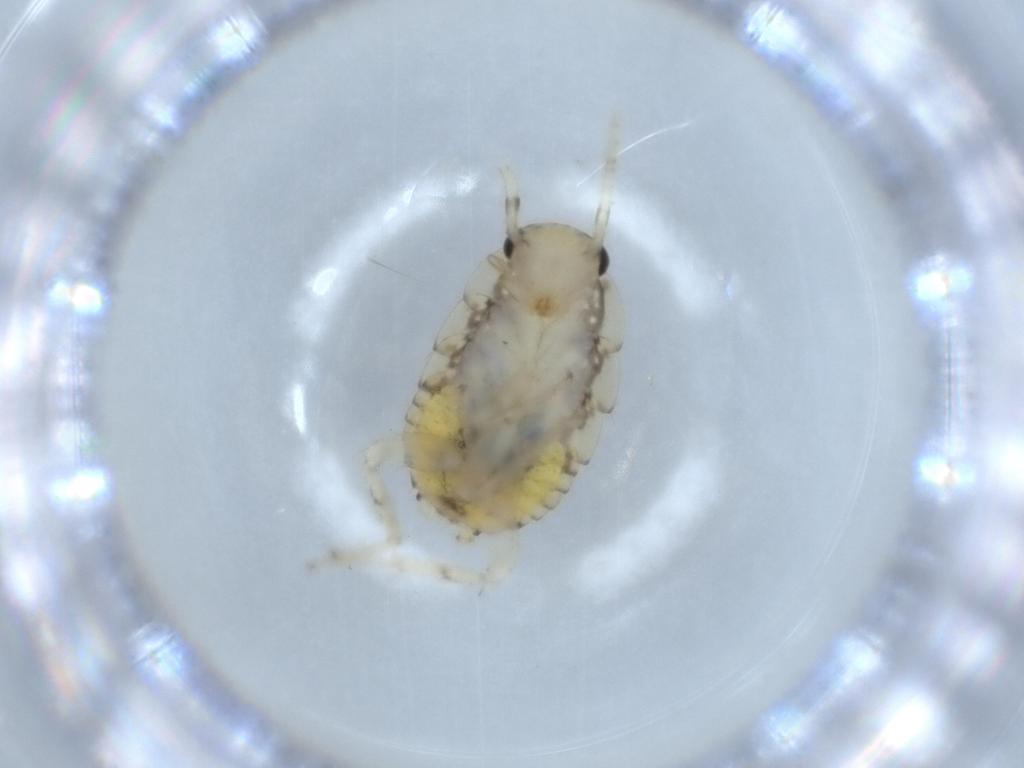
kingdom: Animalia
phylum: Arthropoda
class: Insecta
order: Blattodea
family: Ectobiidae
